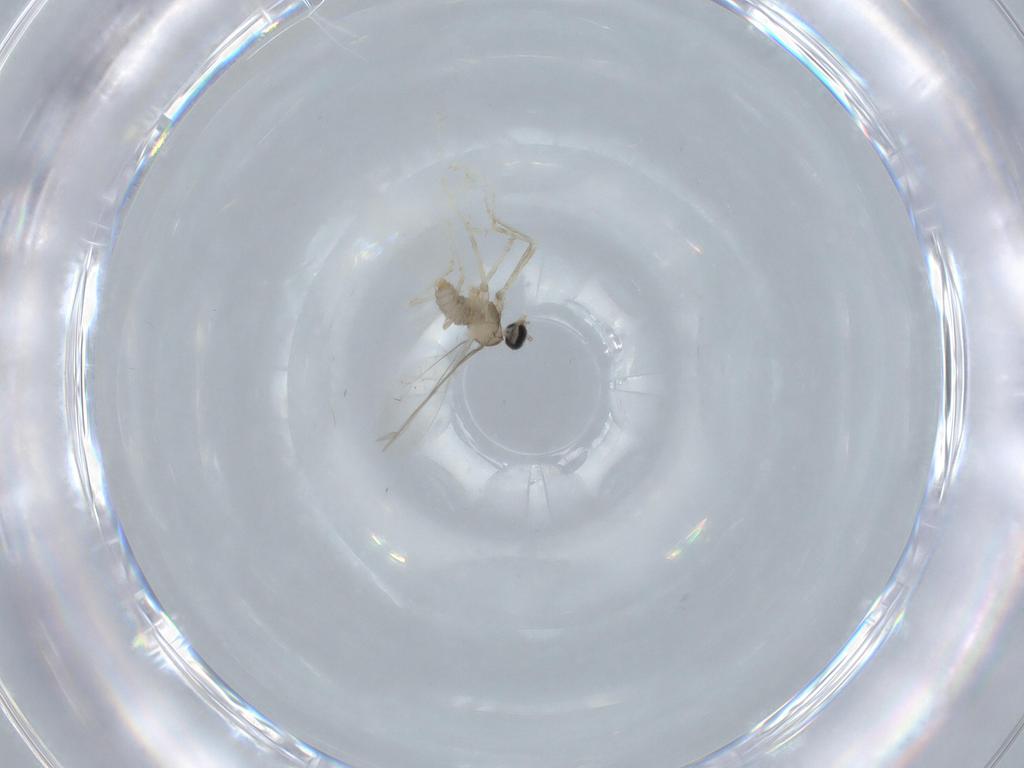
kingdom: Animalia
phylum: Arthropoda
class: Insecta
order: Diptera
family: Cecidomyiidae
